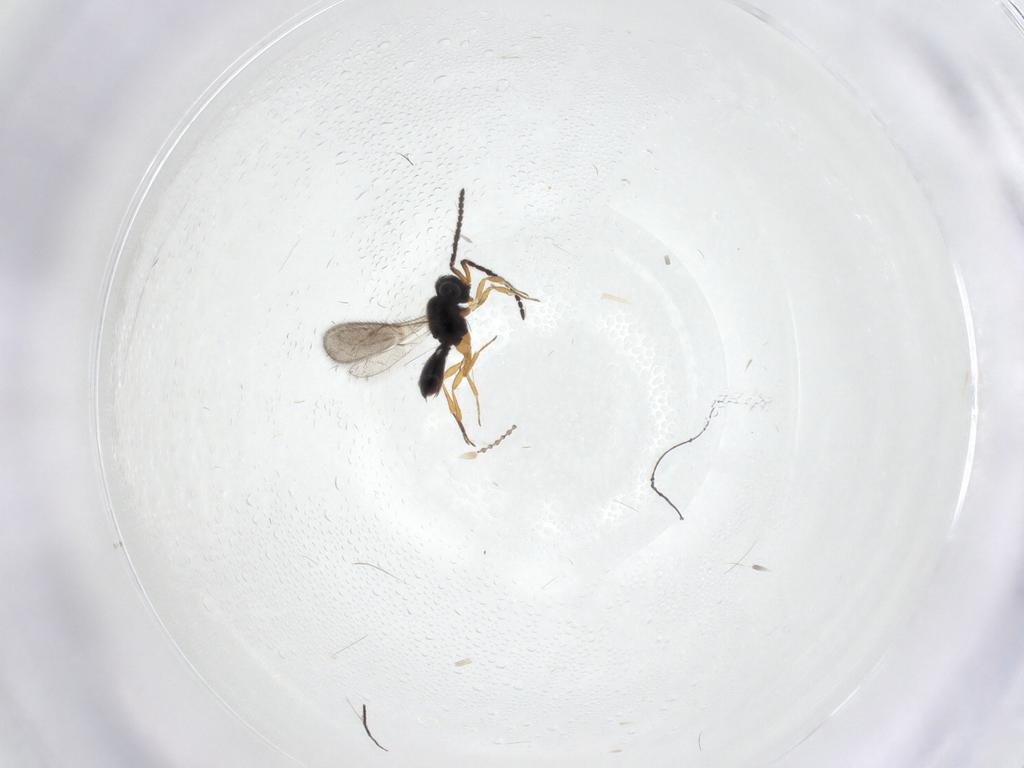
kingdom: Animalia
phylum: Arthropoda
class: Insecta
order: Hymenoptera
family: Scelionidae
